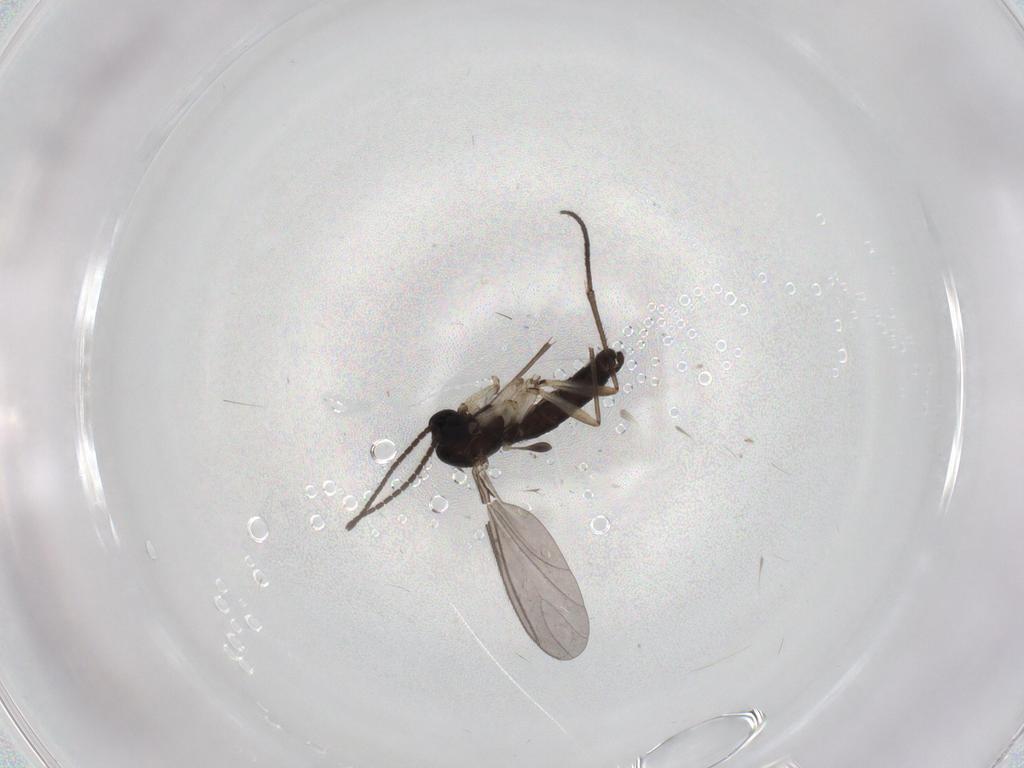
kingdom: Animalia
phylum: Arthropoda
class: Insecta
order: Diptera
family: Sciaridae
